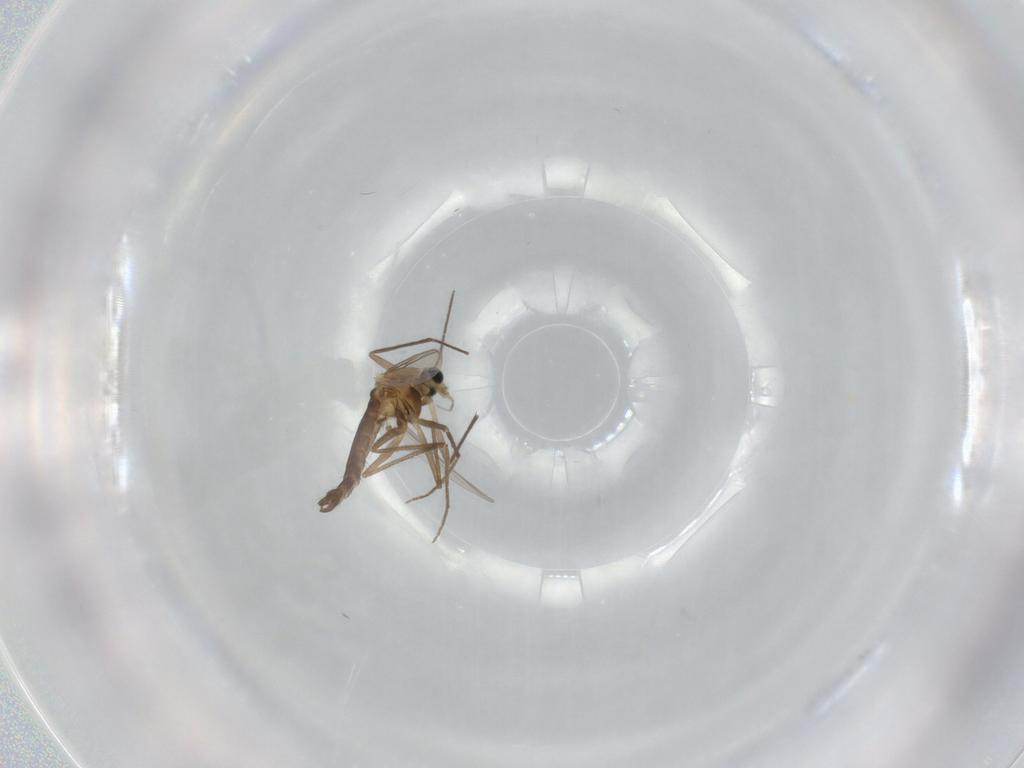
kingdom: Animalia
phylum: Arthropoda
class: Insecta
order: Diptera
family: Chironomidae
